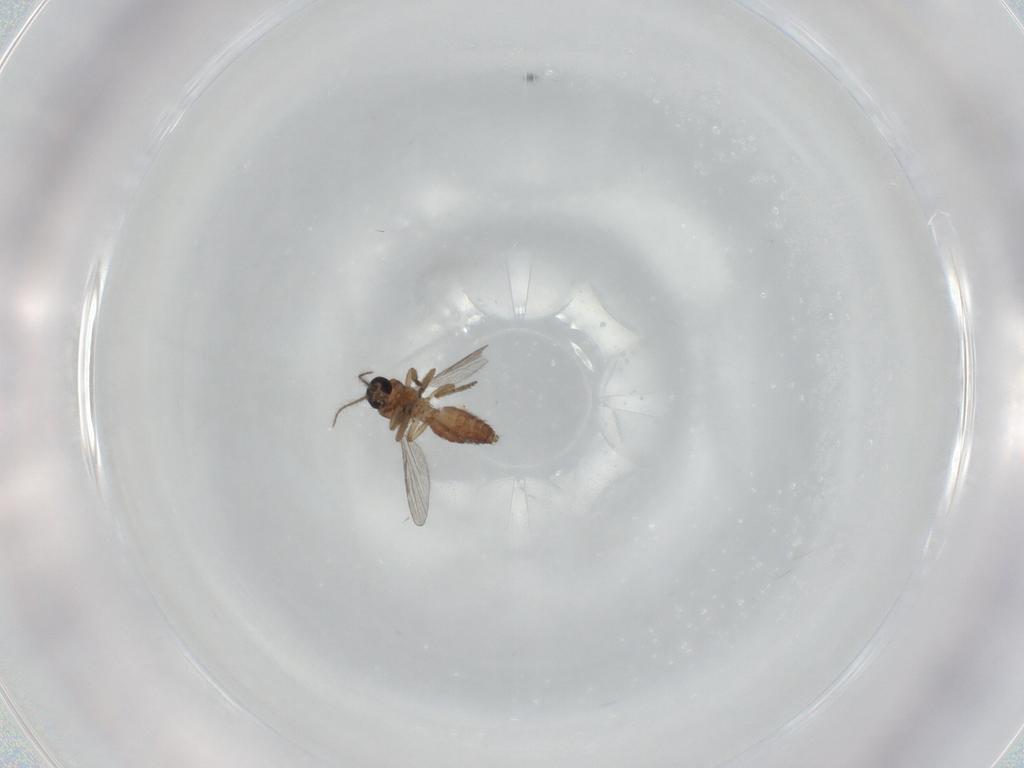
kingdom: Animalia
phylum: Arthropoda
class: Insecta
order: Diptera
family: Ceratopogonidae
